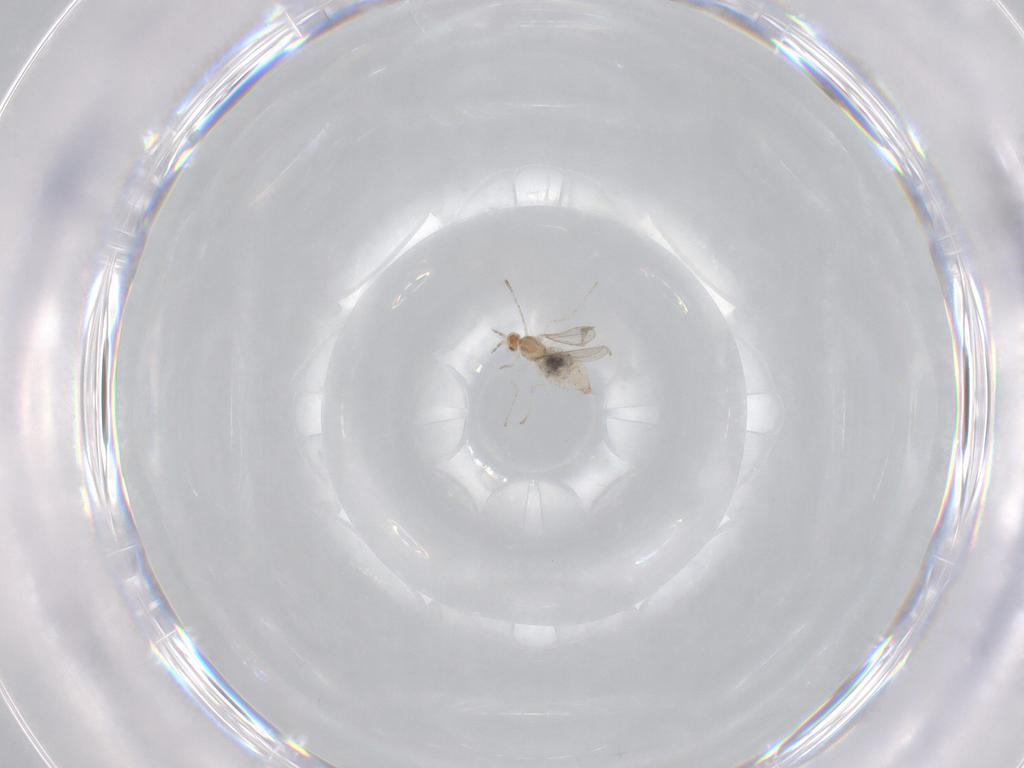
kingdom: Animalia
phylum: Arthropoda
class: Insecta
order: Diptera
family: Cecidomyiidae
